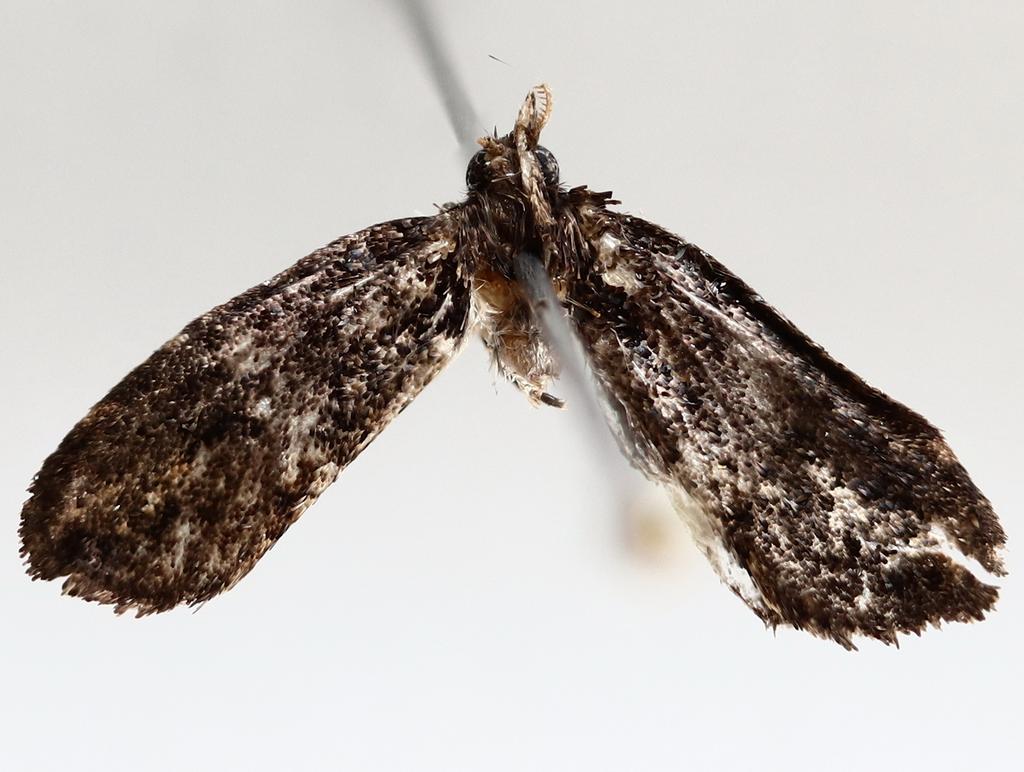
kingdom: Animalia
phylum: Arthropoda
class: Insecta
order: Diptera
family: Psychodidae
